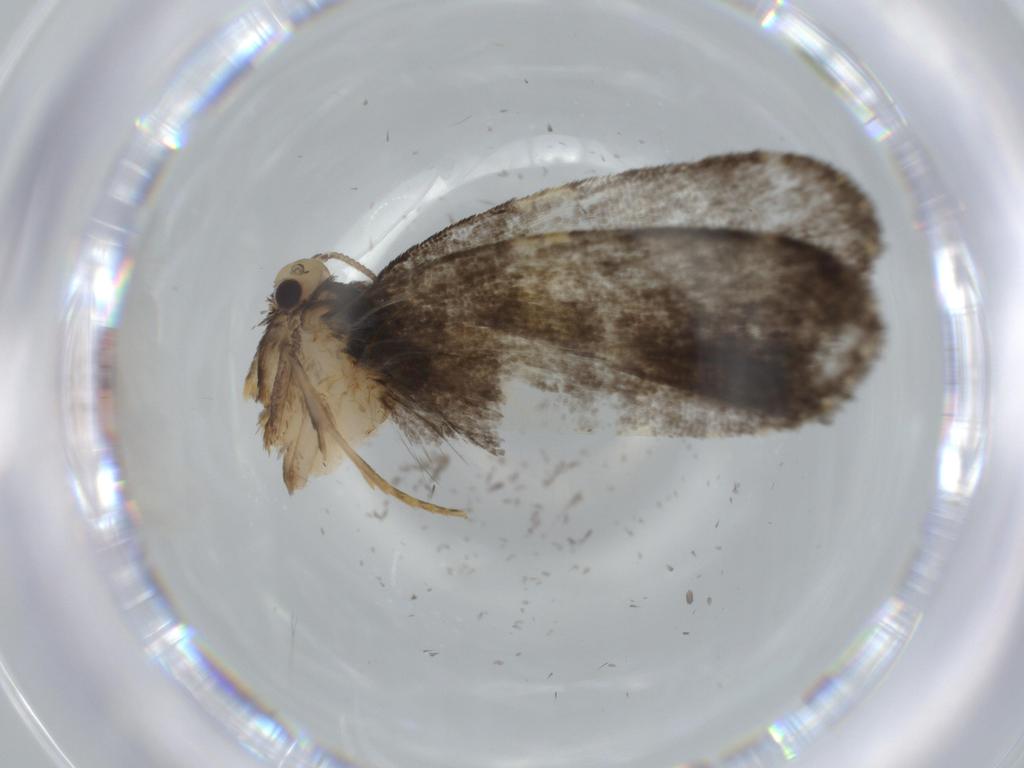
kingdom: Animalia
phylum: Arthropoda
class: Insecta
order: Lepidoptera
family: Psychidae
